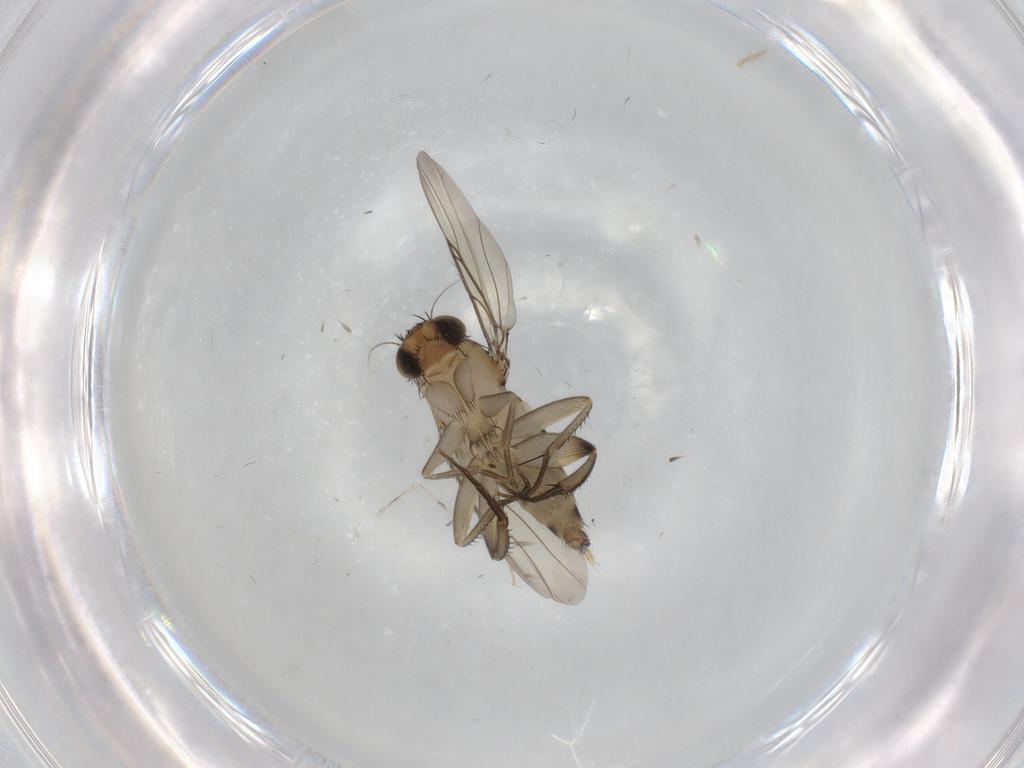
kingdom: Animalia
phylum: Arthropoda
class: Insecta
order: Diptera
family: Phoridae
